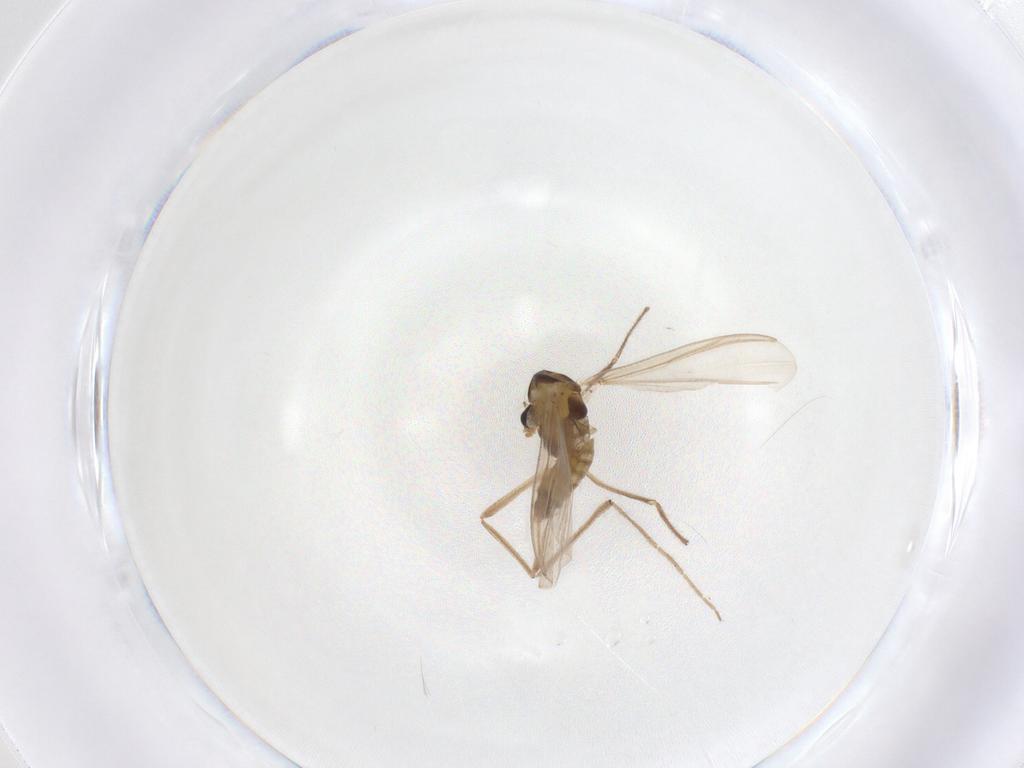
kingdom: Animalia
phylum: Arthropoda
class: Insecta
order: Diptera
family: Chironomidae
